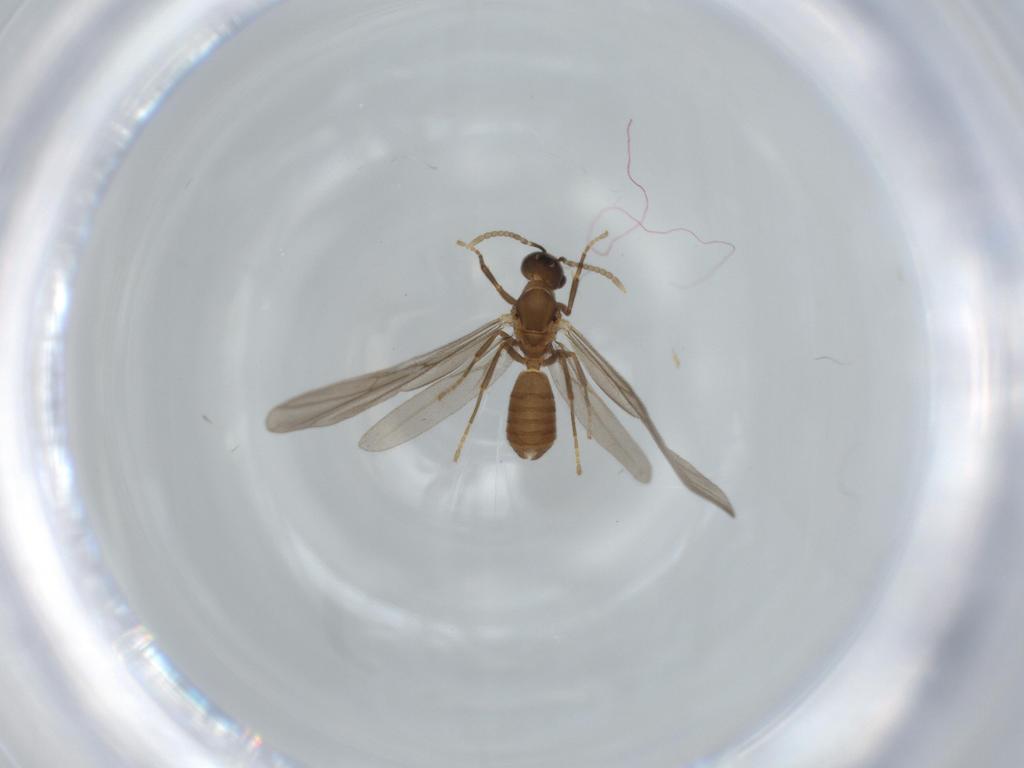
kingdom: Animalia
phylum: Arthropoda
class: Insecta
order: Hymenoptera
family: Formicidae
